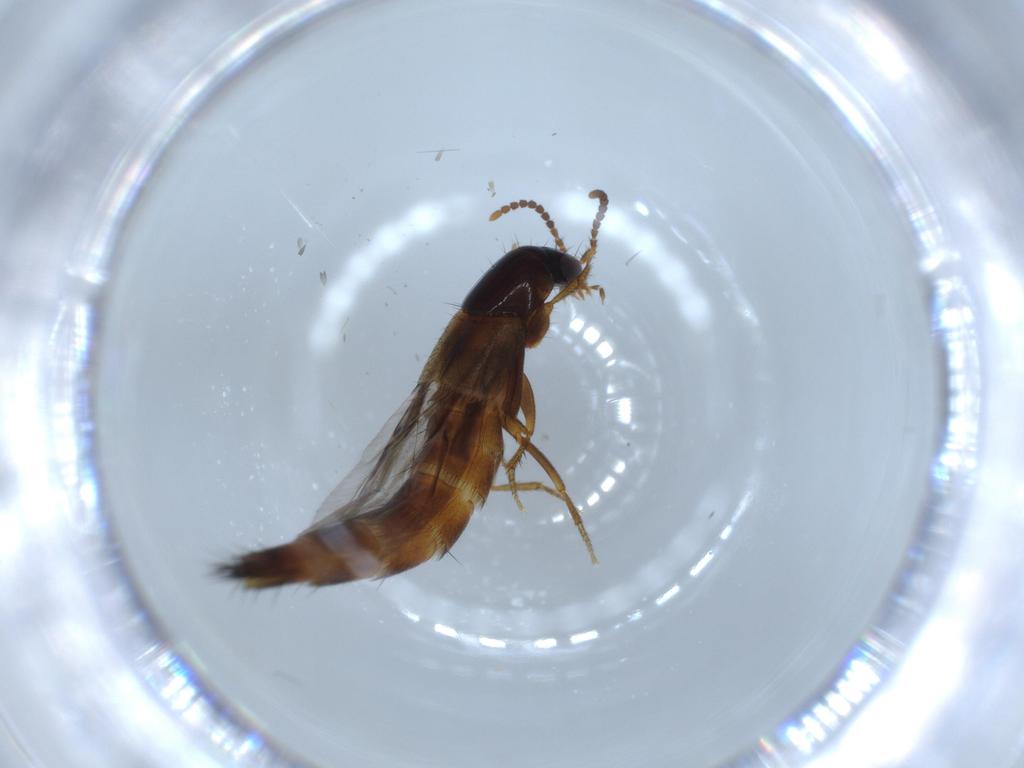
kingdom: Animalia
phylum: Arthropoda
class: Insecta
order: Coleoptera
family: Staphylinidae
